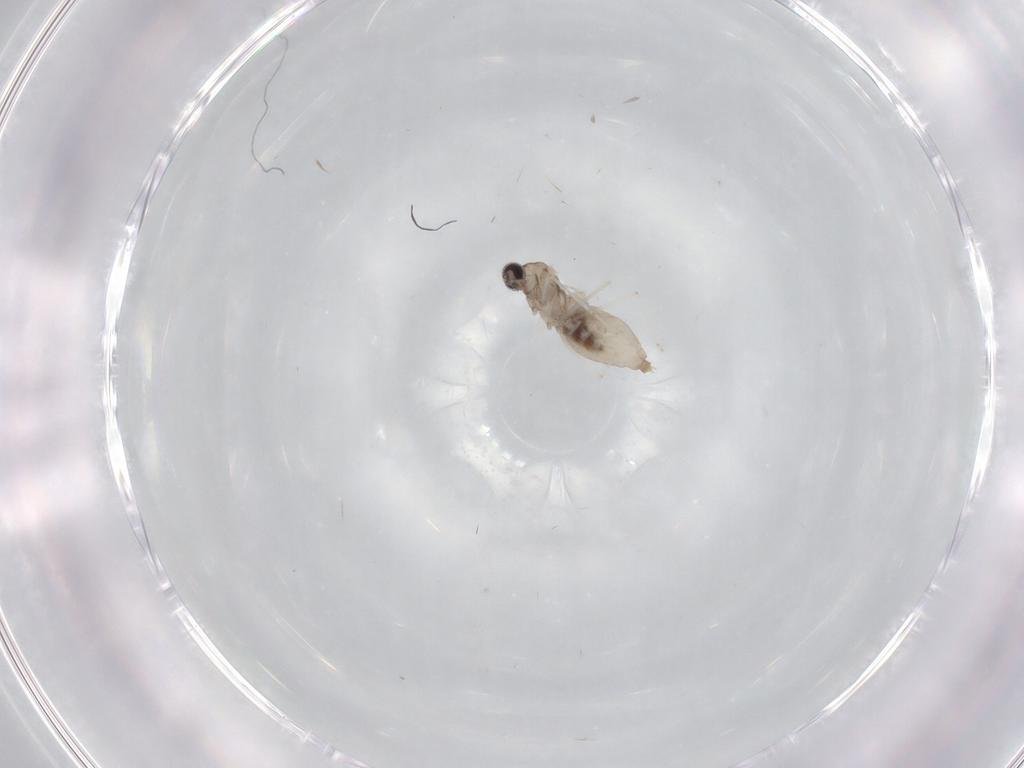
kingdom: Animalia
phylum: Arthropoda
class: Insecta
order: Diptera
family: Cecidomyiidae
